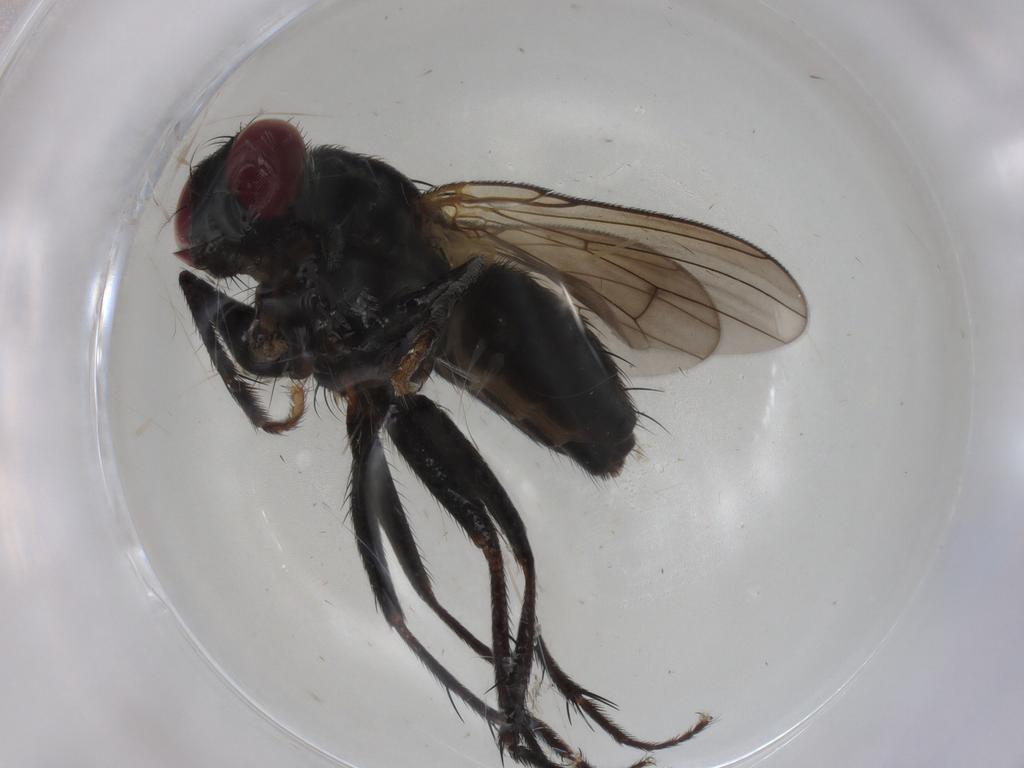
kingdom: Animalia
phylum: Arthropoda
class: Insecta
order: Diptera
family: Muscidae
